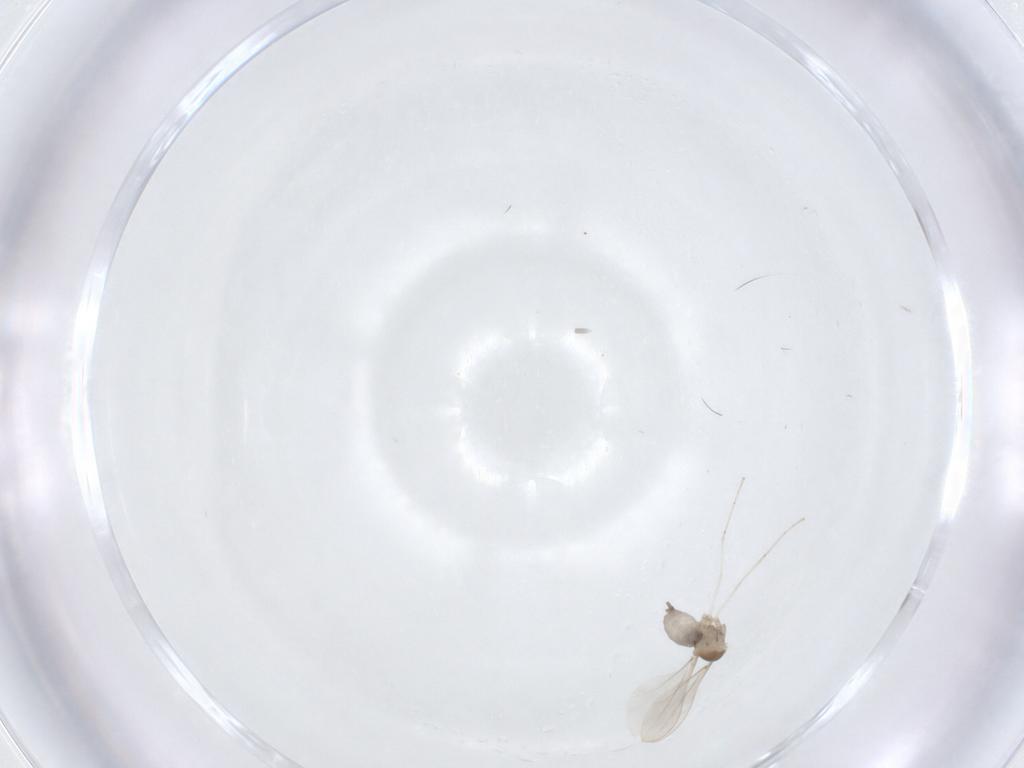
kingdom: Animalia
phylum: Arthropoda
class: Insecta
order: Diptera
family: Cecidomyiidae
